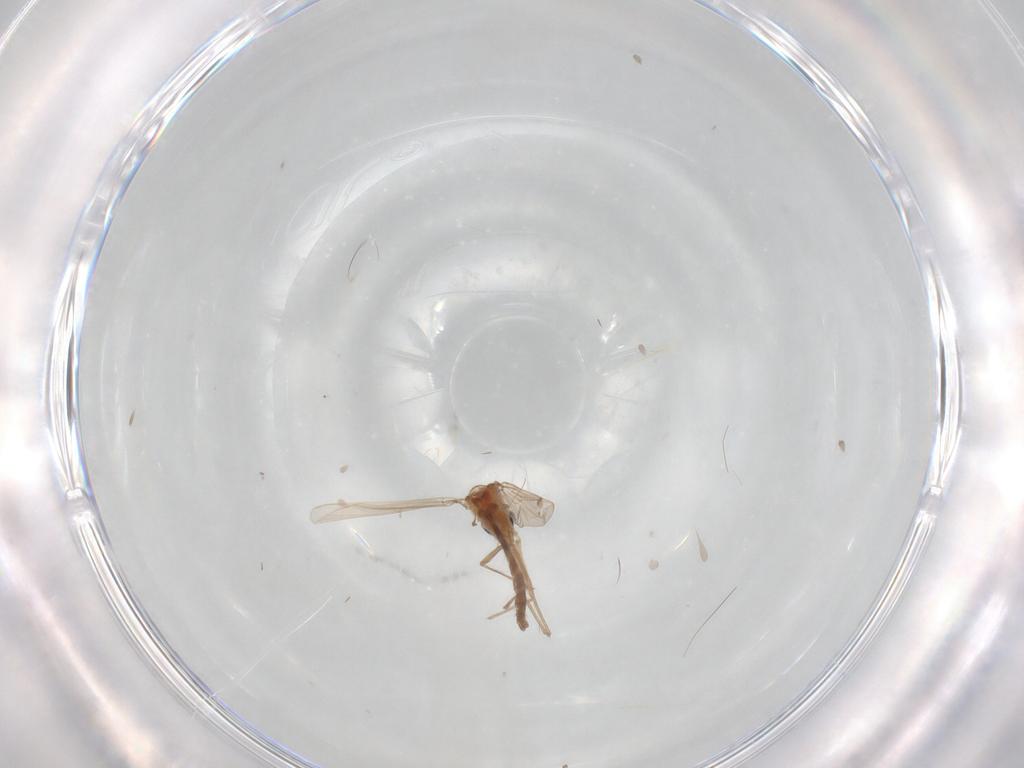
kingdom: Animalia
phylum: Arthropoda
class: Insecta
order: Diptera
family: Chironomidae
